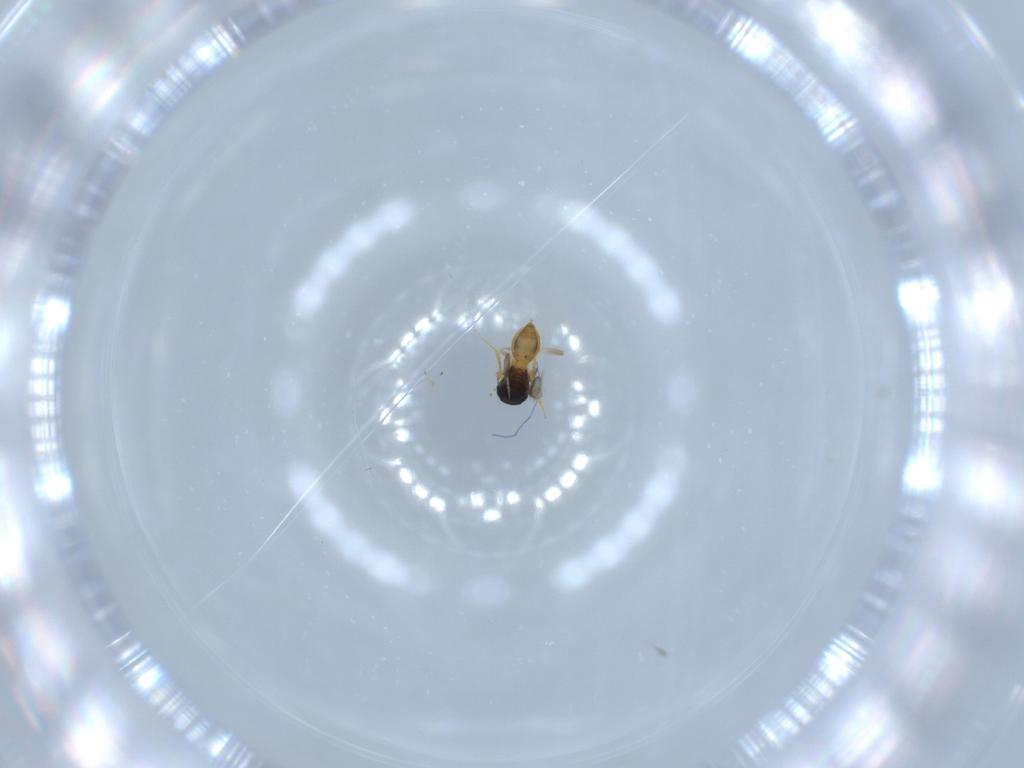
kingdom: Animalia
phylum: Arthropoda
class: Insecta
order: Hymenoptera
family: Scelionidae
